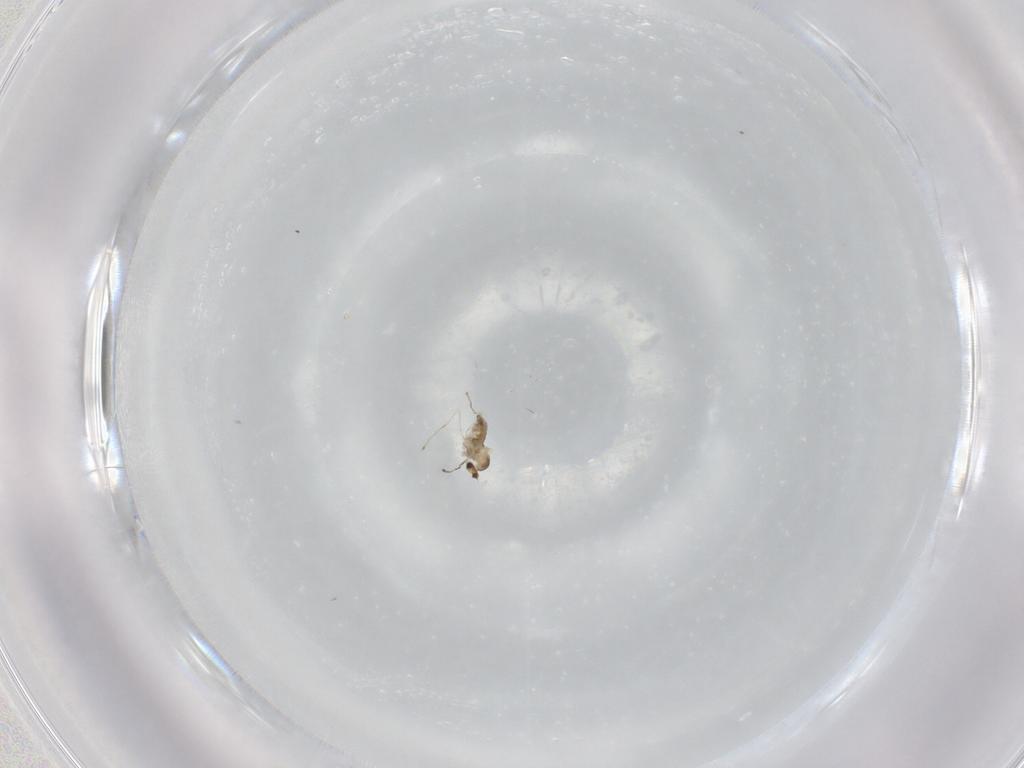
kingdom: Animalia
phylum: Arthropoda
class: Insecta
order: Diptera
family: Cecidomyiidae
